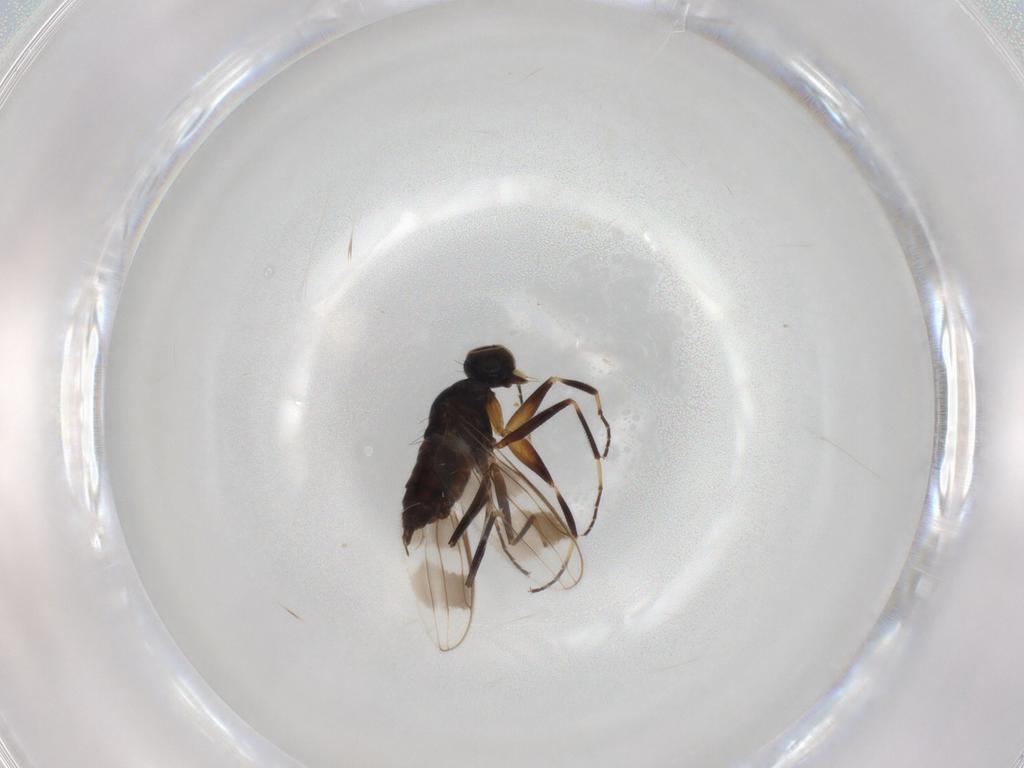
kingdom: Animalia
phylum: Arthropoda
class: Insecta
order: Diptera
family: Hybotidae
